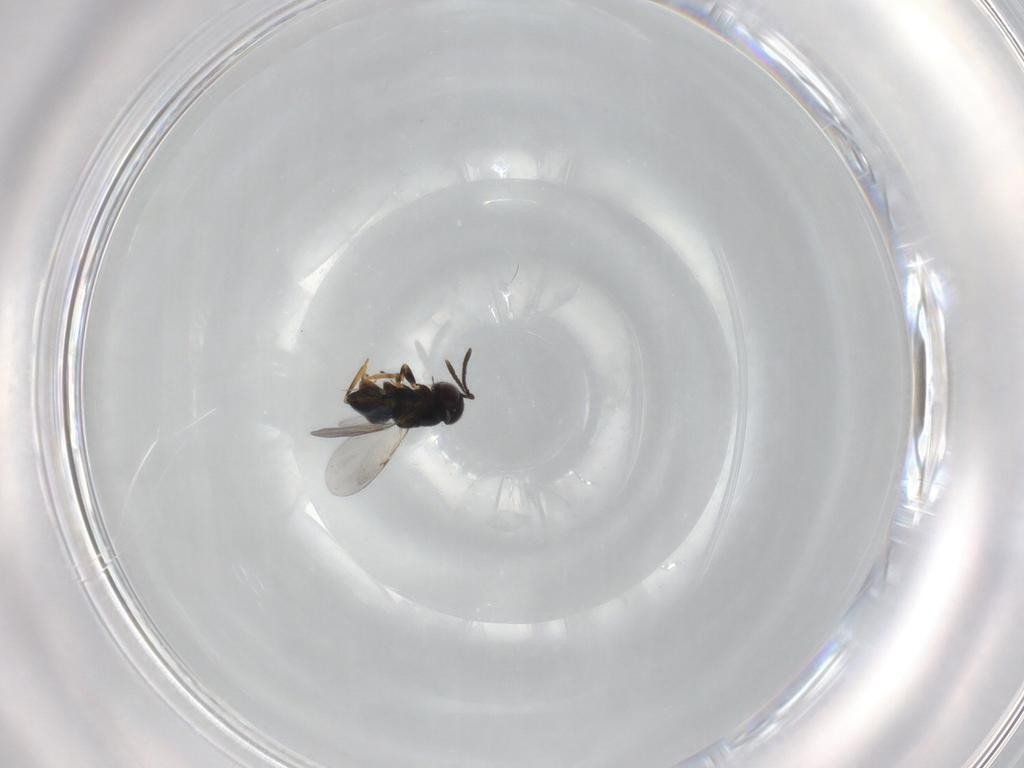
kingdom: Animalia
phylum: Arthropoda
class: Insecta
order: Hymenoptera
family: Encyrtidae
